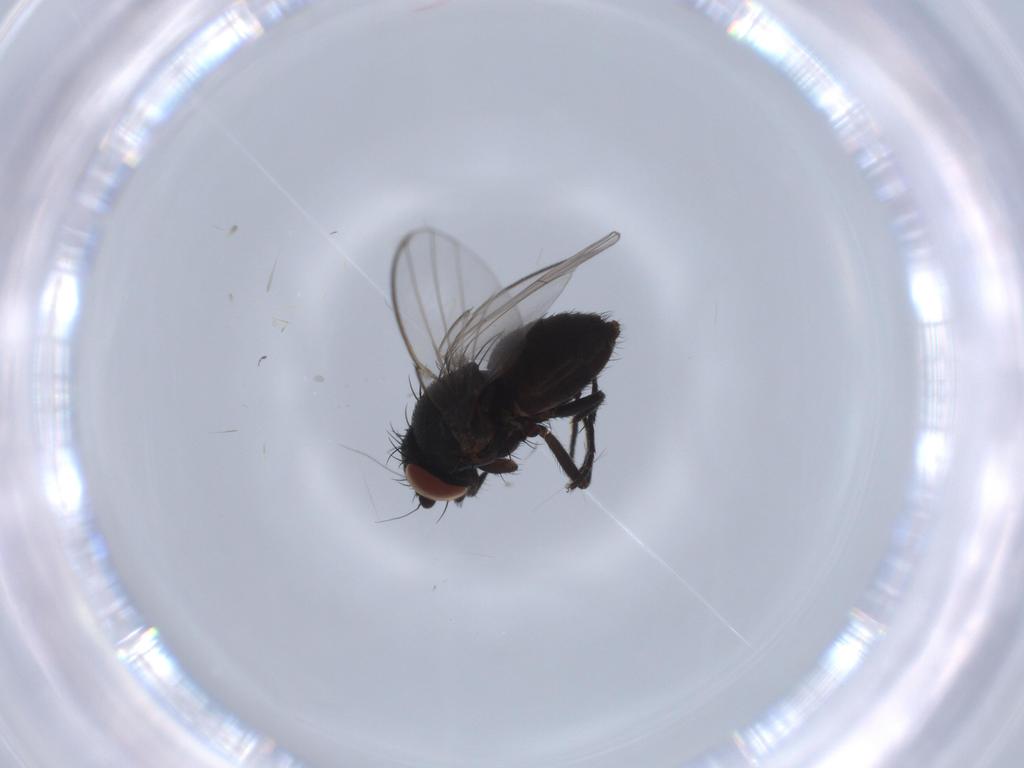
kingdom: Animalia
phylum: Arthropoda
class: Insecta
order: Diptera
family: Milichiidae
